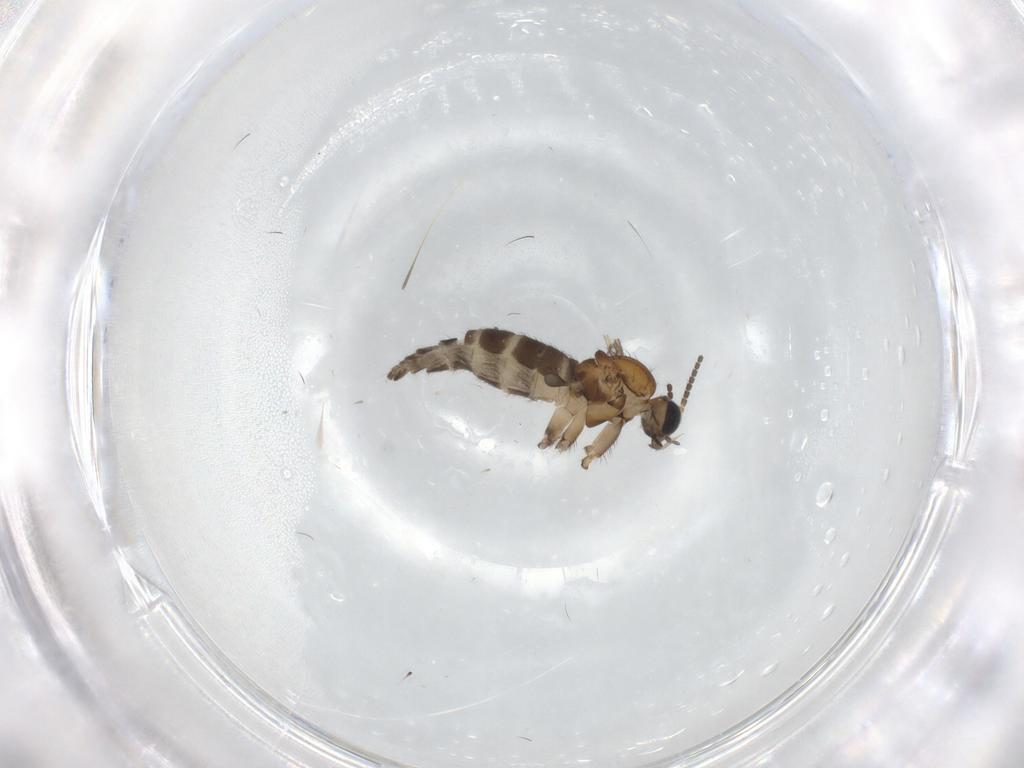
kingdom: Animalia
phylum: Arthropoda
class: Insecta
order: Diptera
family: Sciaridae
